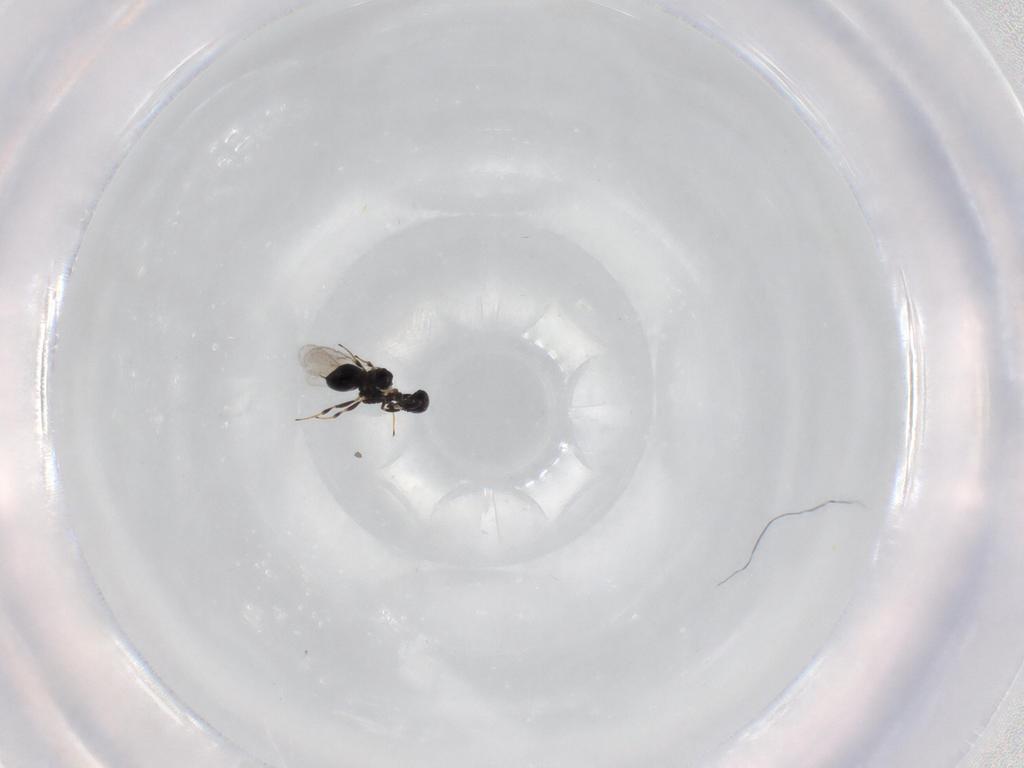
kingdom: Animalia
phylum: Arthropoda
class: Insecta
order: Hymenoptera
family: Scelionidae
